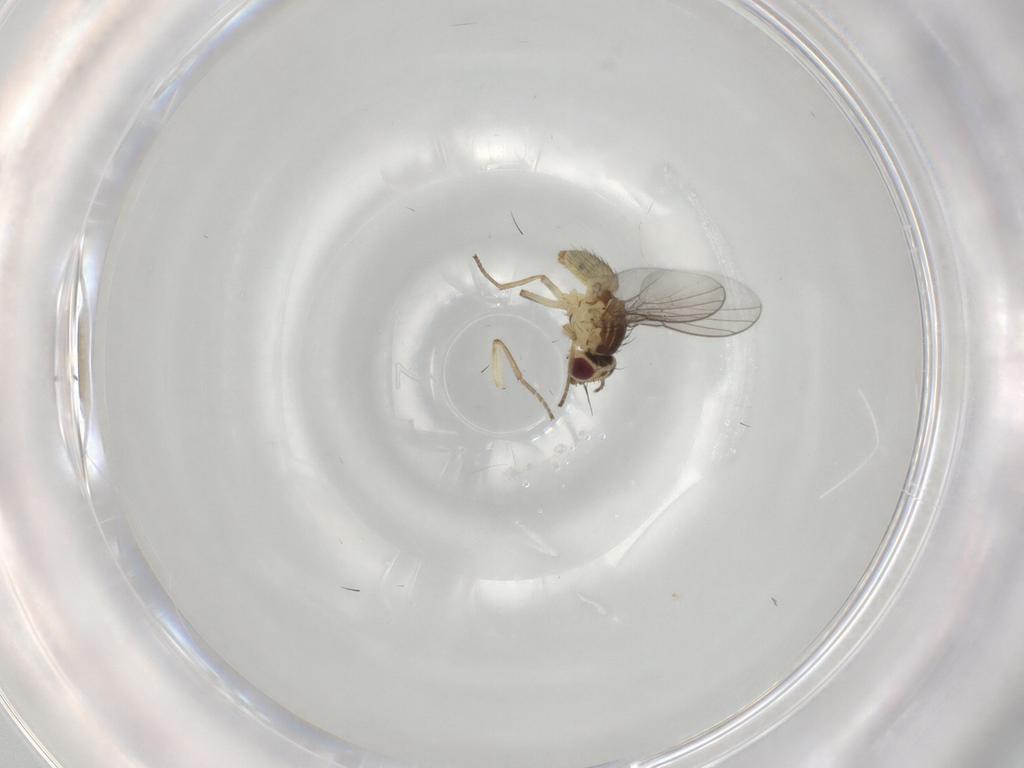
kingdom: Animalia
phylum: Arthropoda
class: Insecta
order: Diptera
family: Agromyzidae
